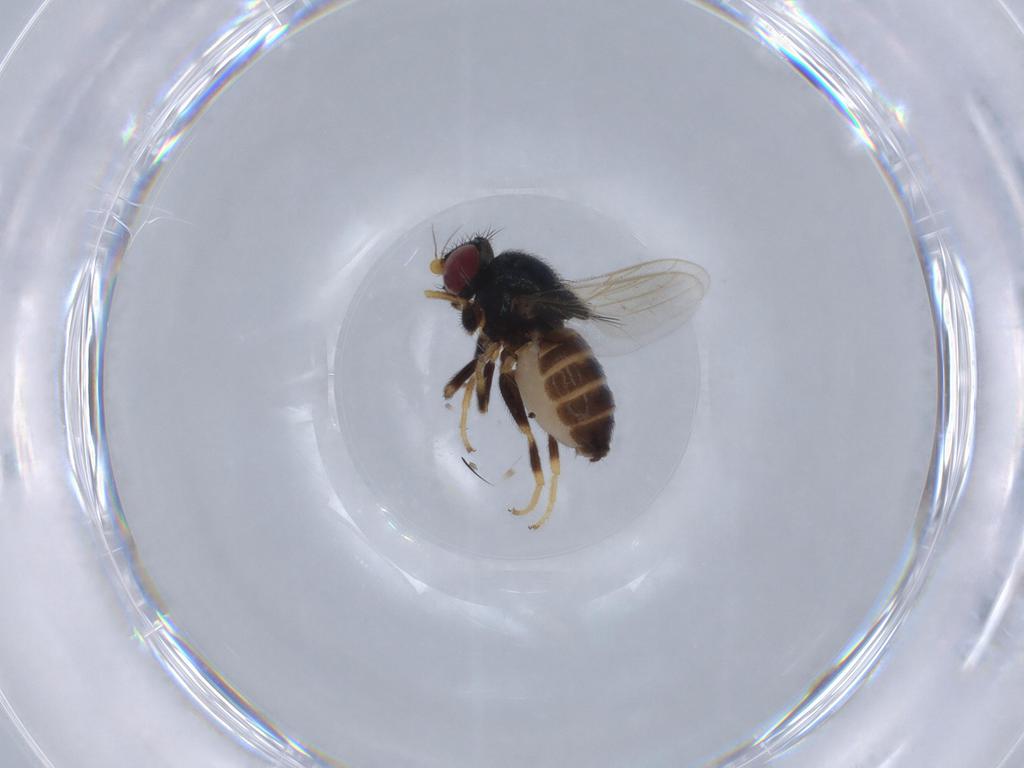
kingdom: Animalia
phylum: Arthropoda
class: Insecta
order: Diptera
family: Chloropidae
